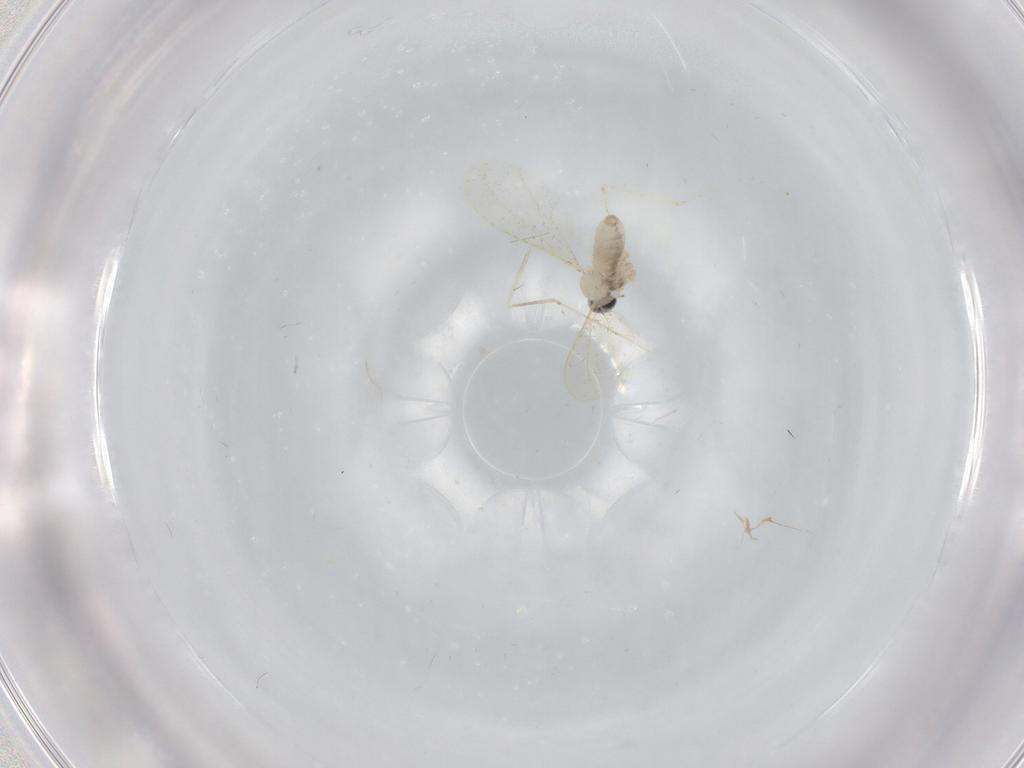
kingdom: Animalia
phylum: Arthropoda
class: Insecta
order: Diptera
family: Cecidomyiidae
